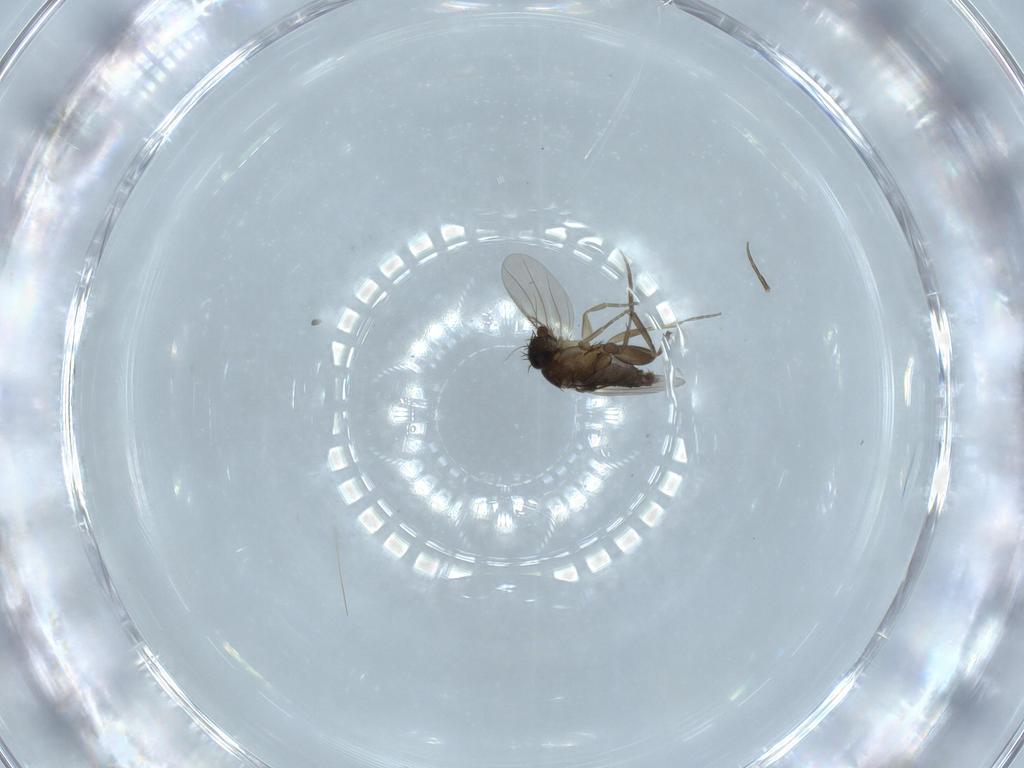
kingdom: Animalia
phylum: Arthropoda
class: Insecta
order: Diptera
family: Phoridae
